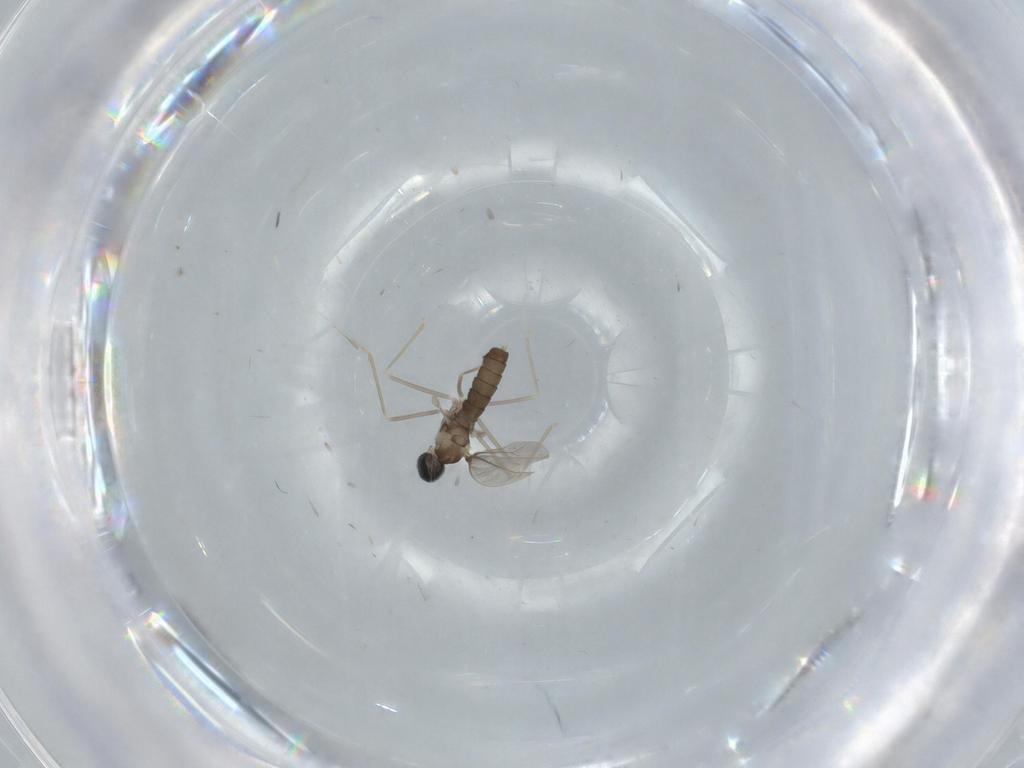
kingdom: Animalia
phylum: Arthropoda
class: Insecta
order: Diptera
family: Cecidomyiidae
